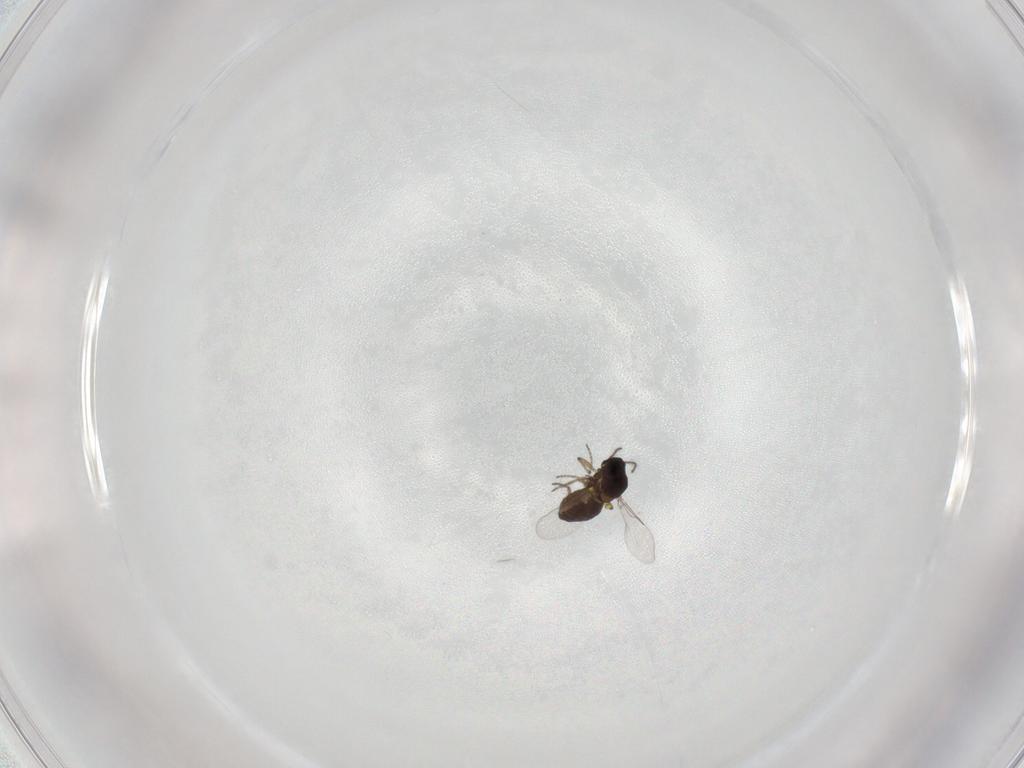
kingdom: Animalia
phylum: Arthropoda
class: Insecta
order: Diptera
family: Ceratopogonidae
